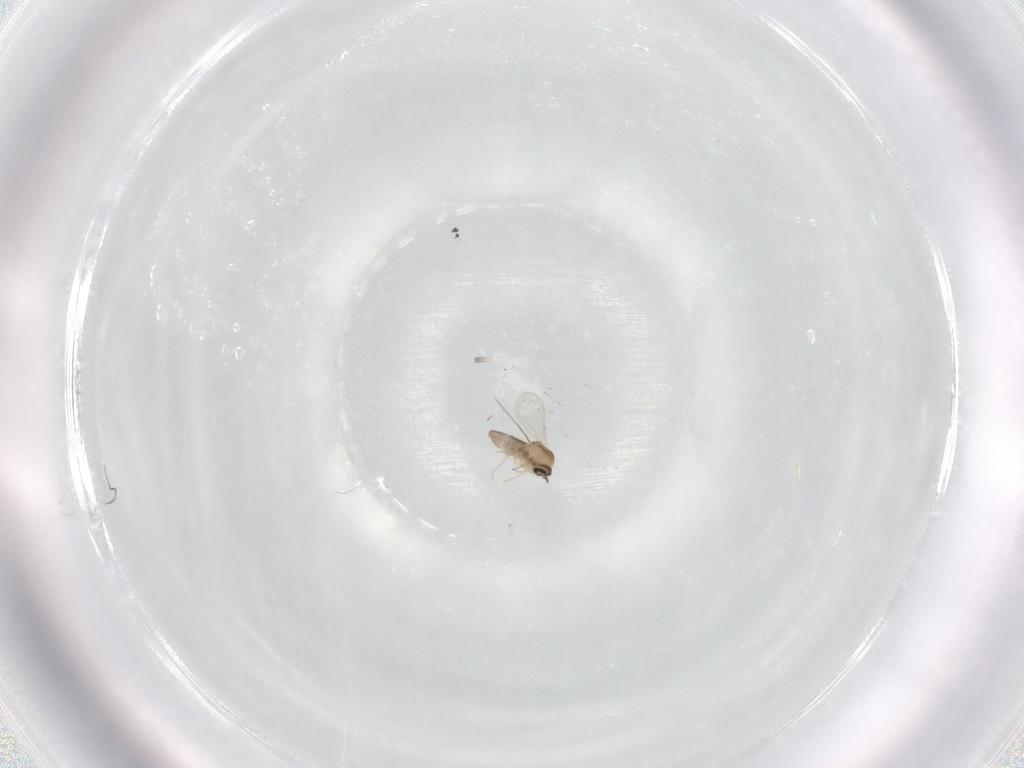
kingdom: Animalia
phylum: Arthropoda
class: Insecta
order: Diptera
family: Ceratopogonidae
